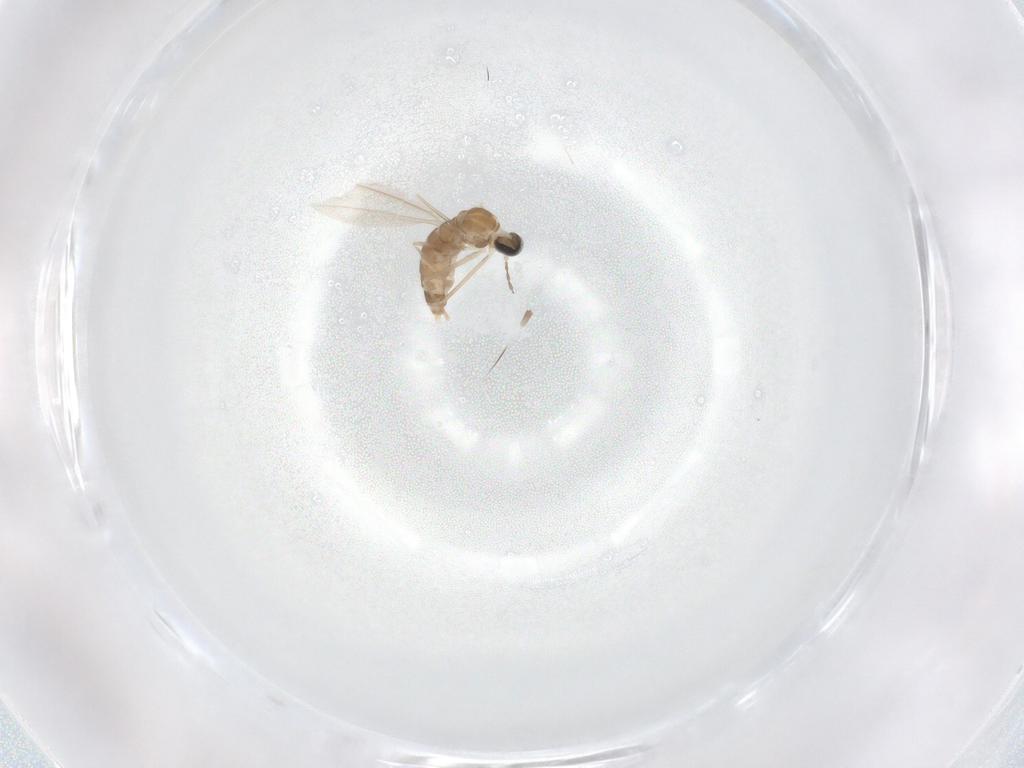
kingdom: Animalia
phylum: Arthropoda
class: Insecta
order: Diptera
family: Cecidomyiidae
